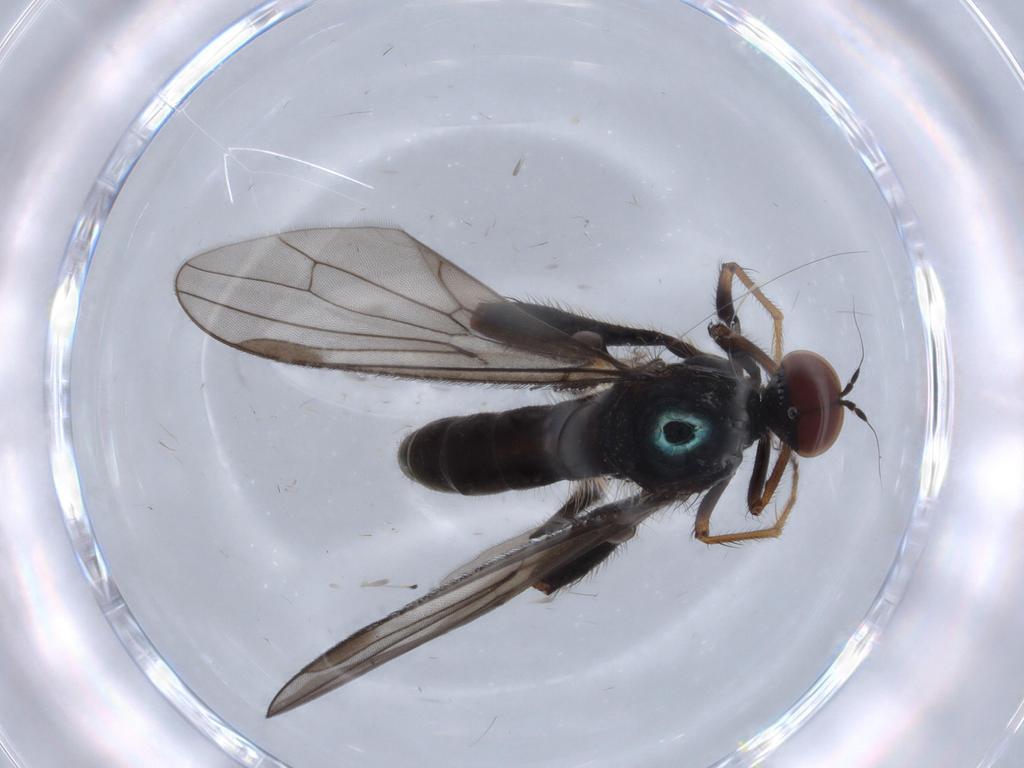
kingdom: Animalia
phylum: Arthropoda
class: Insecta
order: Diptera
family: Hybotidae
